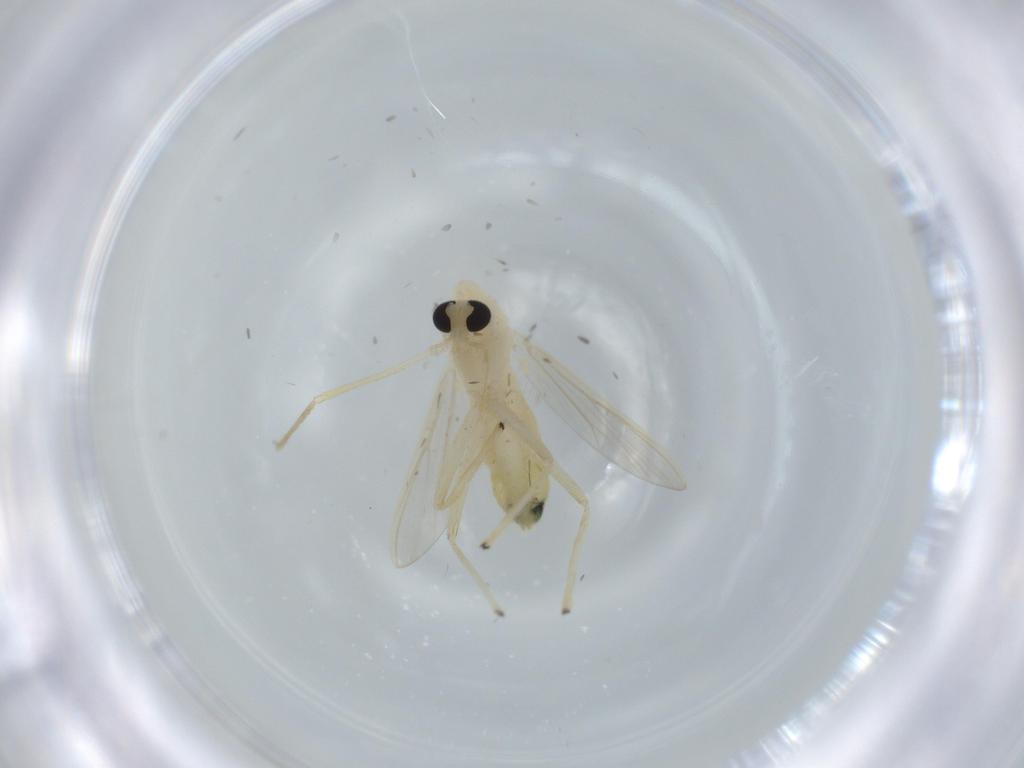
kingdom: Animalia
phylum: Arthropoda
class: Insecta
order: Diptera
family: Chironomidae
